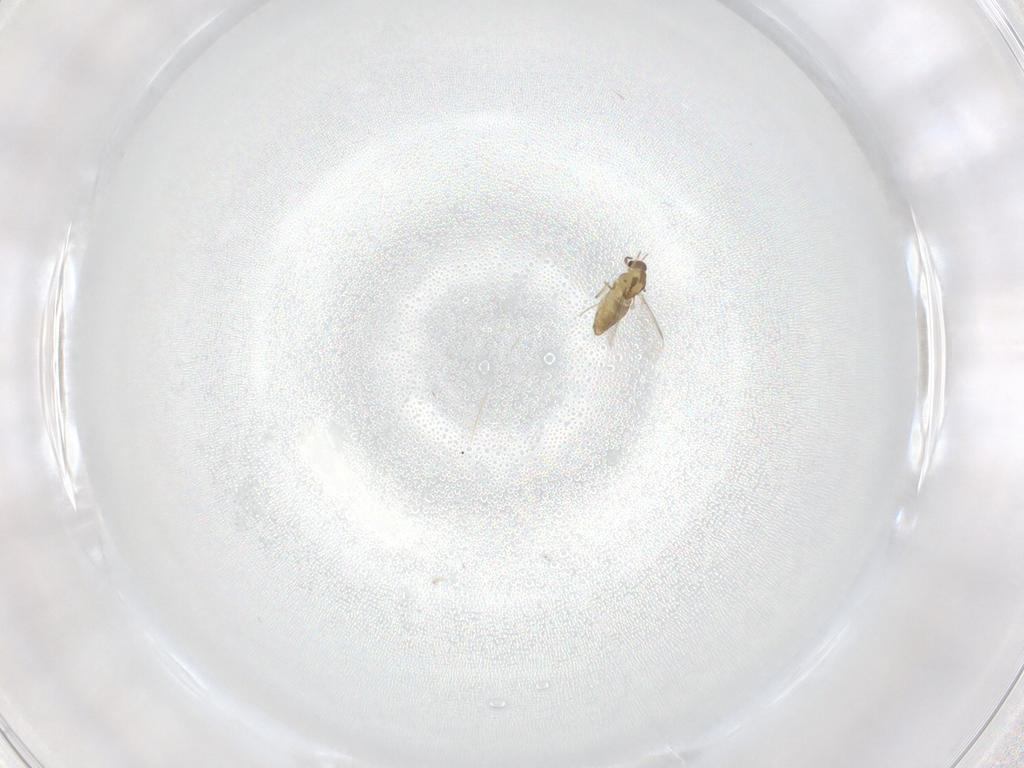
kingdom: Animalia
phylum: Arthropoda
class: Insecta
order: Diptera
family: Chironomidae
